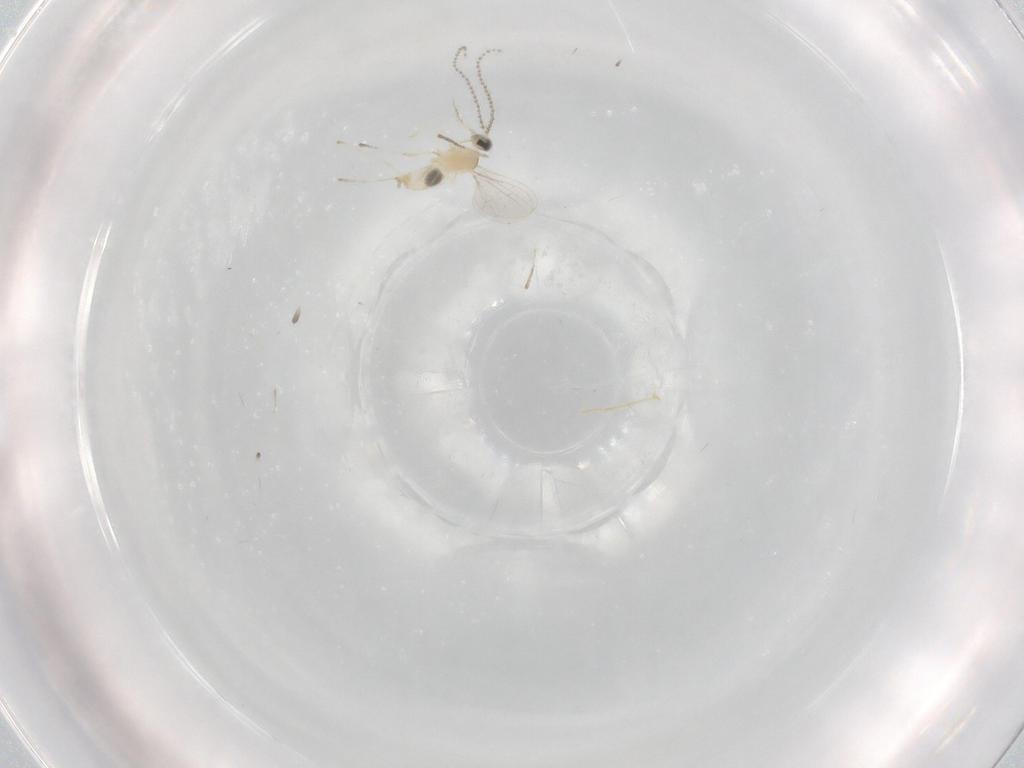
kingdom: Animalia
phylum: Arthropoda
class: Insecta
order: Diptera
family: Cecidomyiidae
